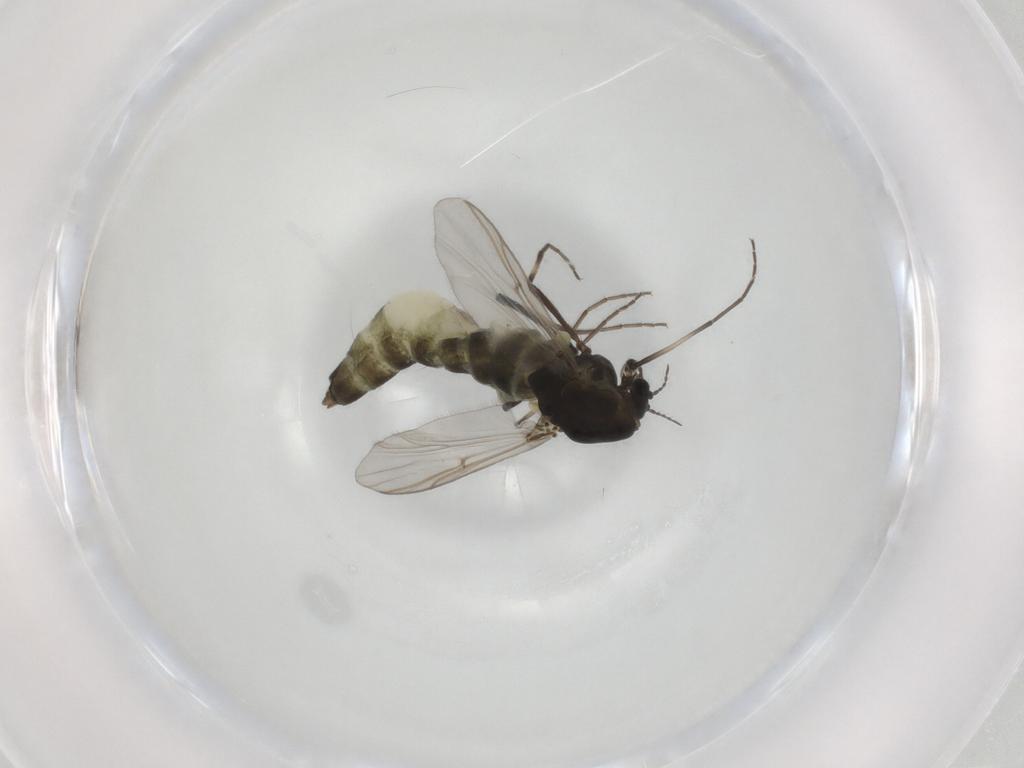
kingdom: Animalia
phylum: Arthropoda
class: Insecta
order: Diptera
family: Chironomidae
